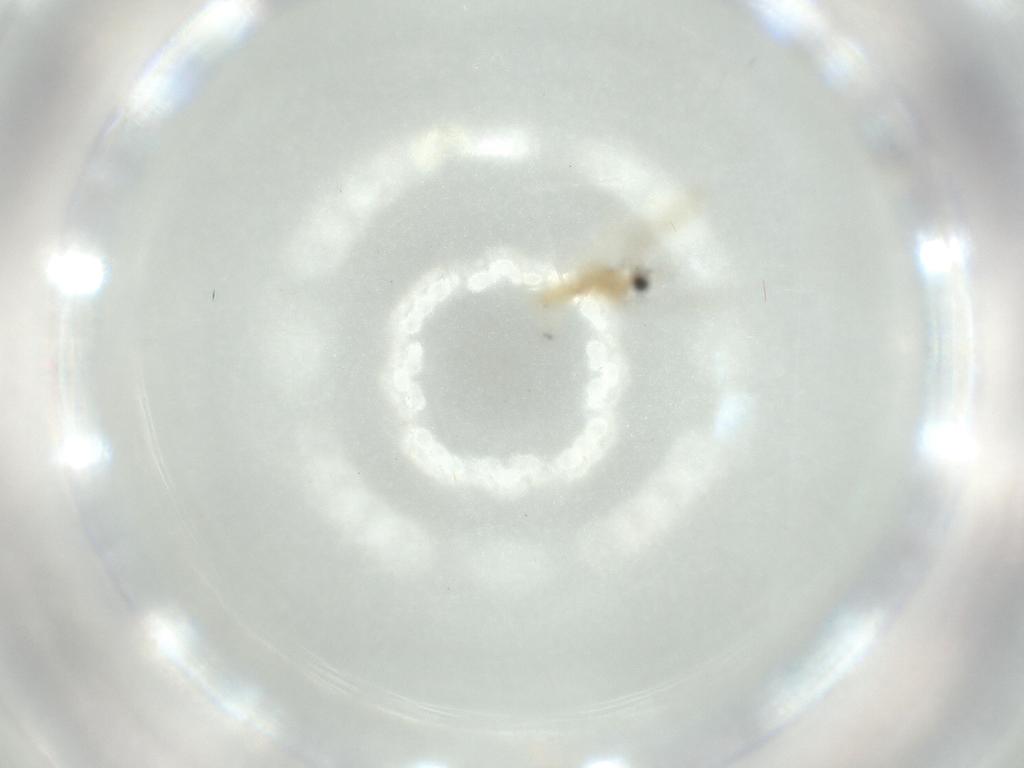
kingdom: Animalia
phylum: Arthropoda
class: Insecta
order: Diptera
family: Cecidomyiidae
